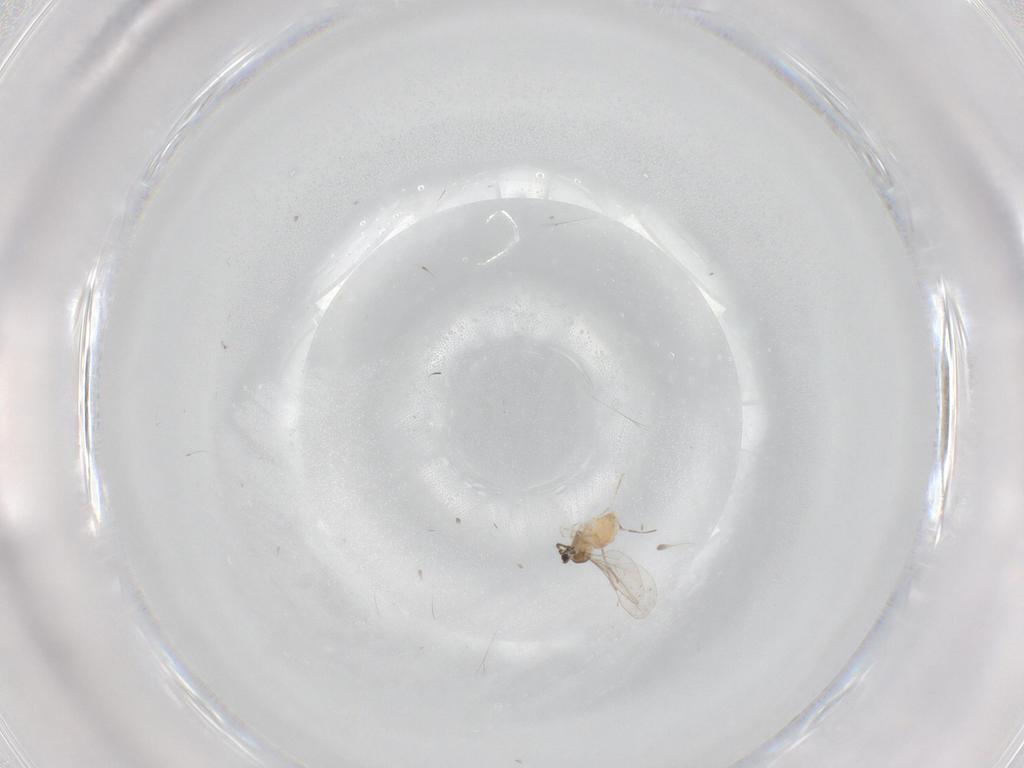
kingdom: Animalia
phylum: Arthropoda
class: Insecta
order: Diptera
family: Cecidomyiidae
